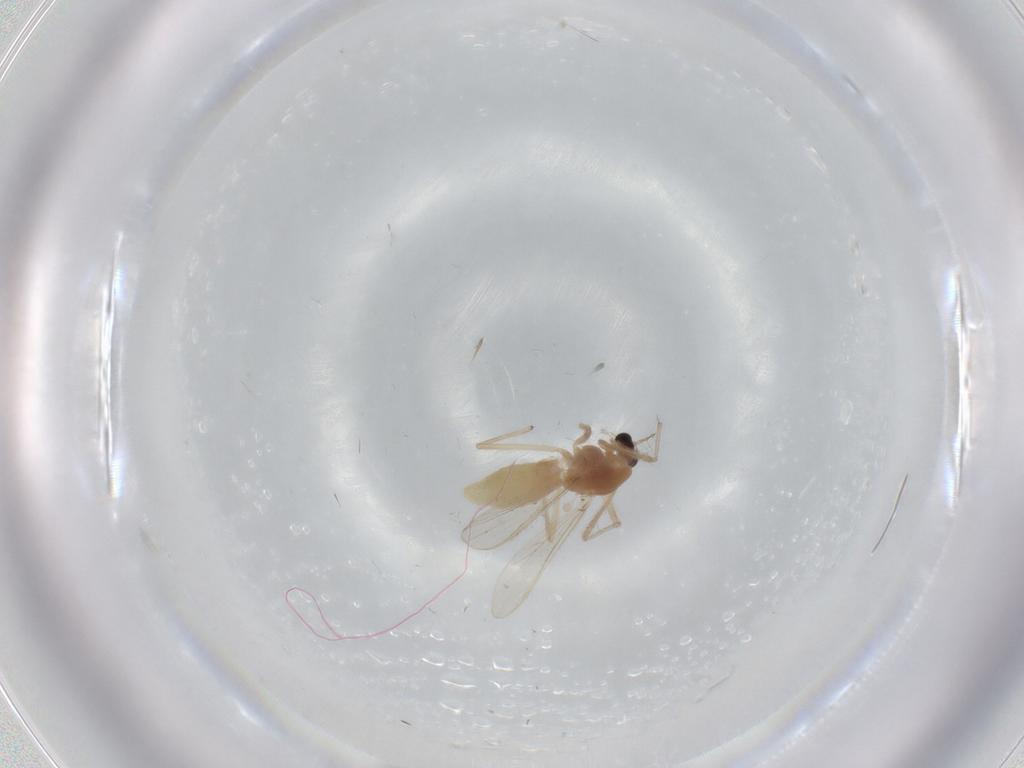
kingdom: Animalia
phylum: Arthropoda
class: Insecta
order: Diptera
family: Chironomidae
